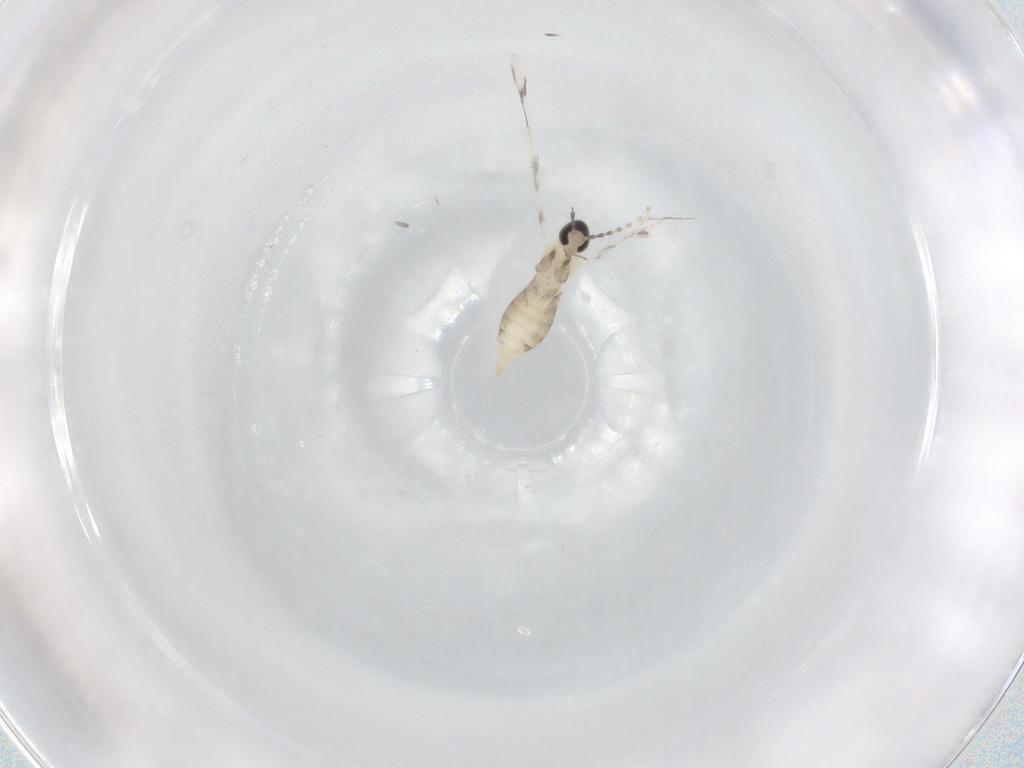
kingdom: Animalia
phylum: Arthropoda
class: Insecta
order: Diptera
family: Cecidomyiidae
